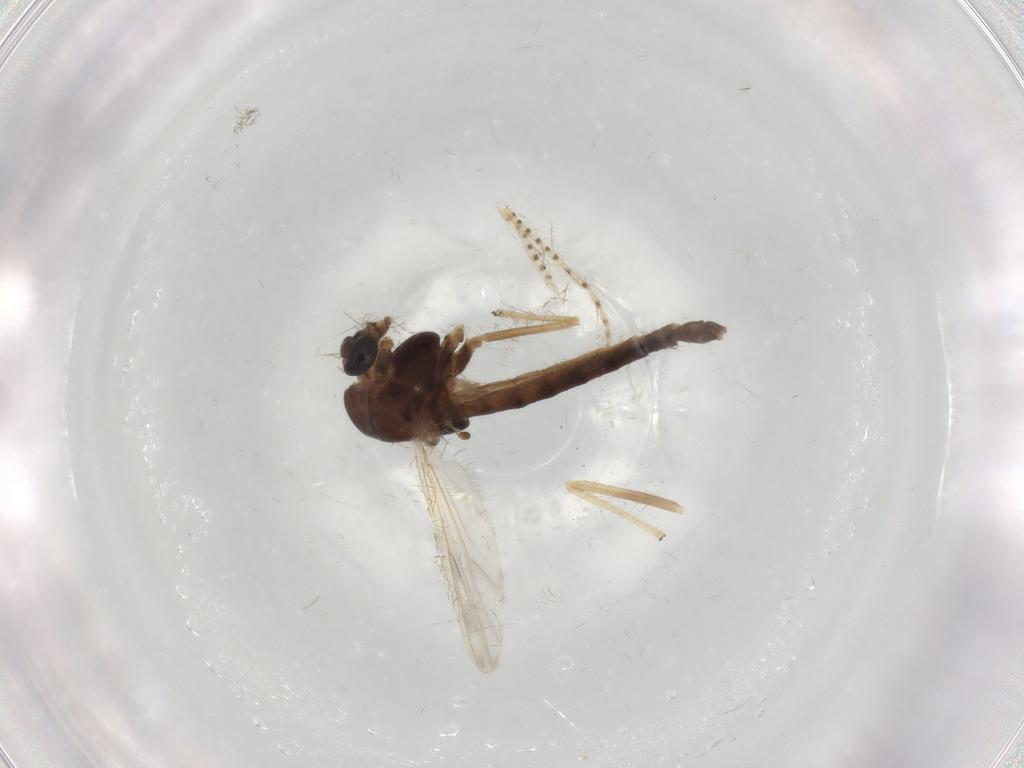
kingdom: Animalia
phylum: Arthropoda
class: Insecta
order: Diptera
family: Chironomidae
